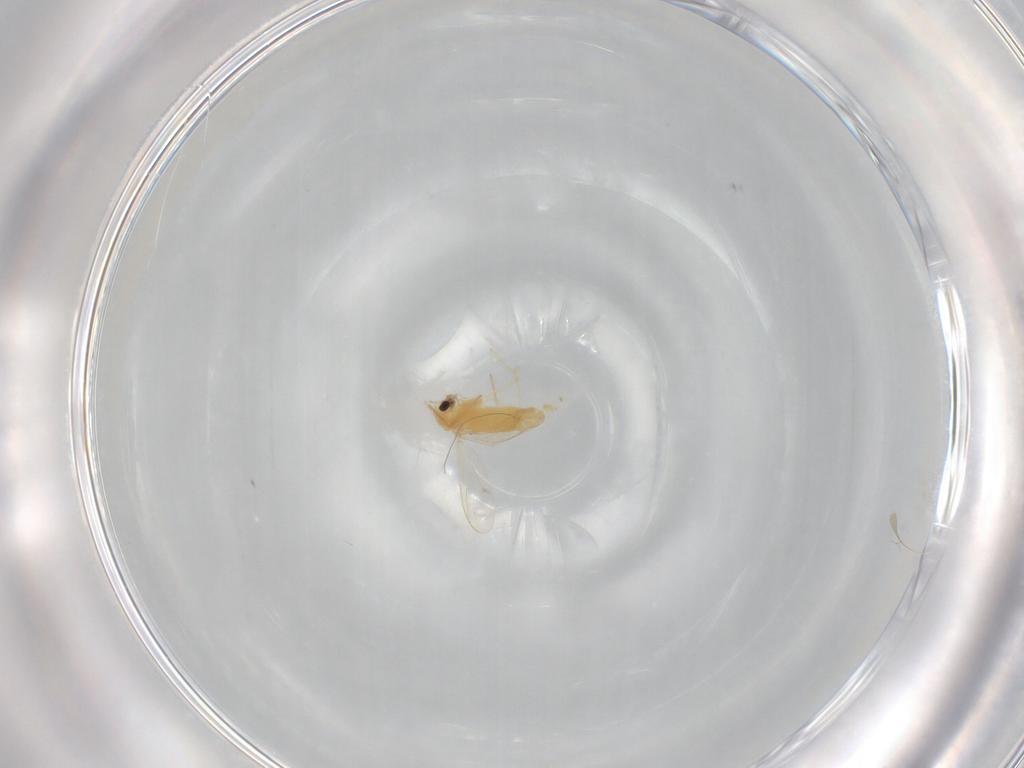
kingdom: Animalia
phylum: Arthropoda
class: Insecta
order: Diptera
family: Chironomidae
